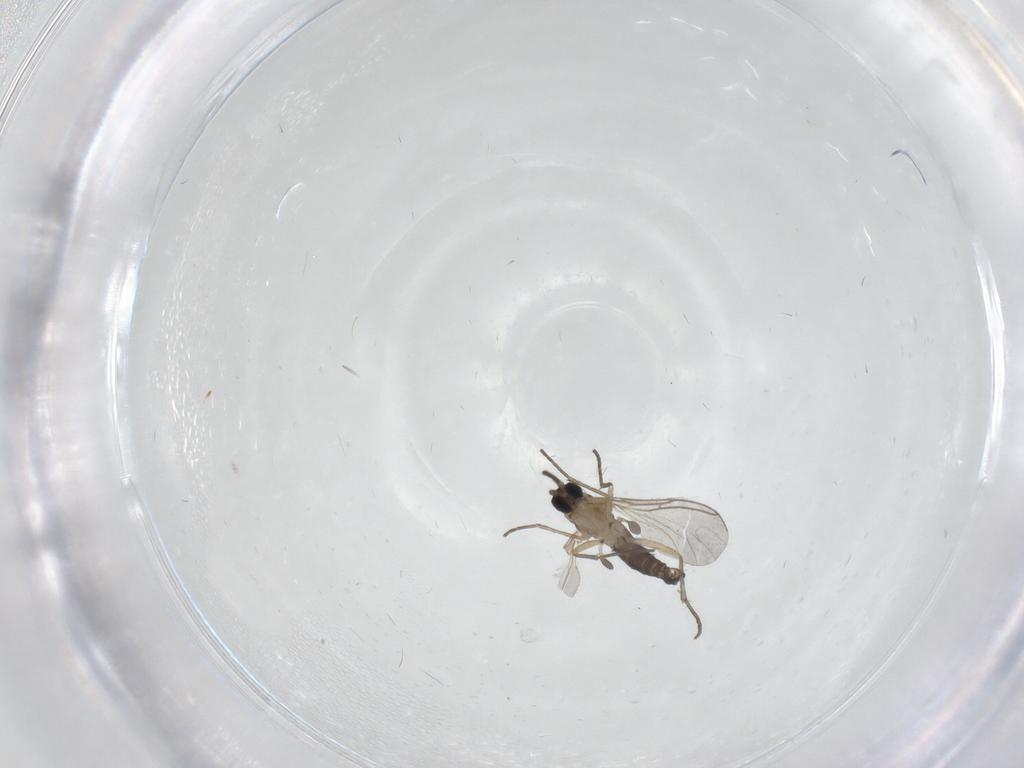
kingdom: Animalia
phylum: Arthropoda
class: Insecta
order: Diptera
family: Sciaridae
